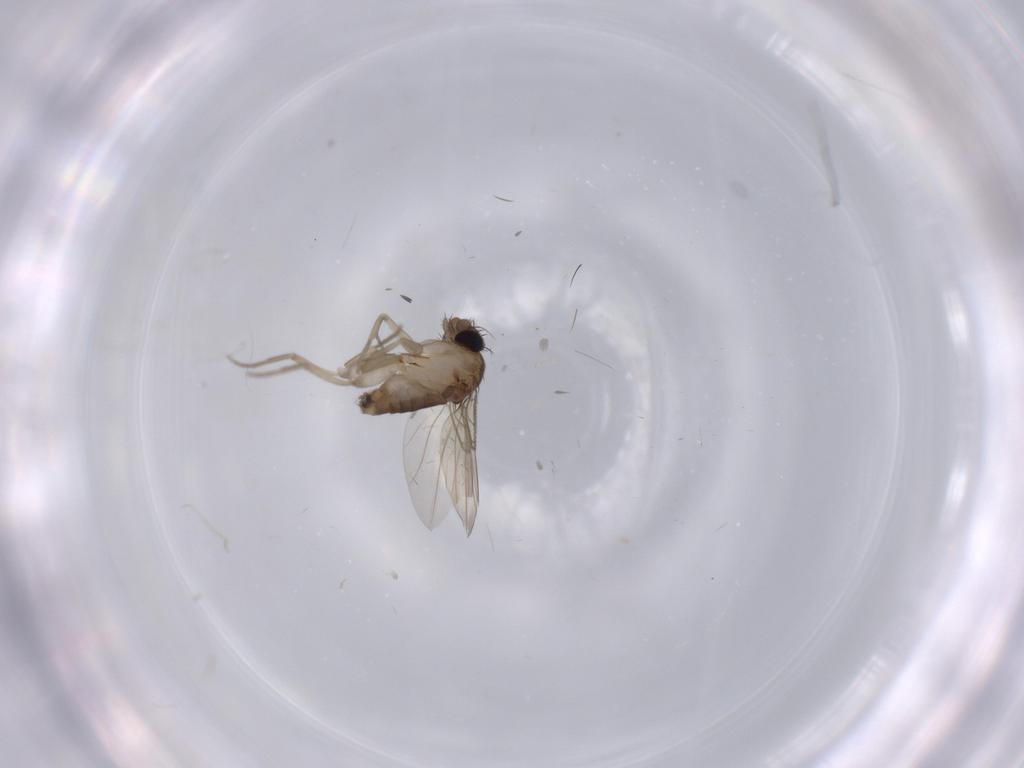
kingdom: Animalia
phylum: Arthropoda
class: Insecta
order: Diptera
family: Phoridae
